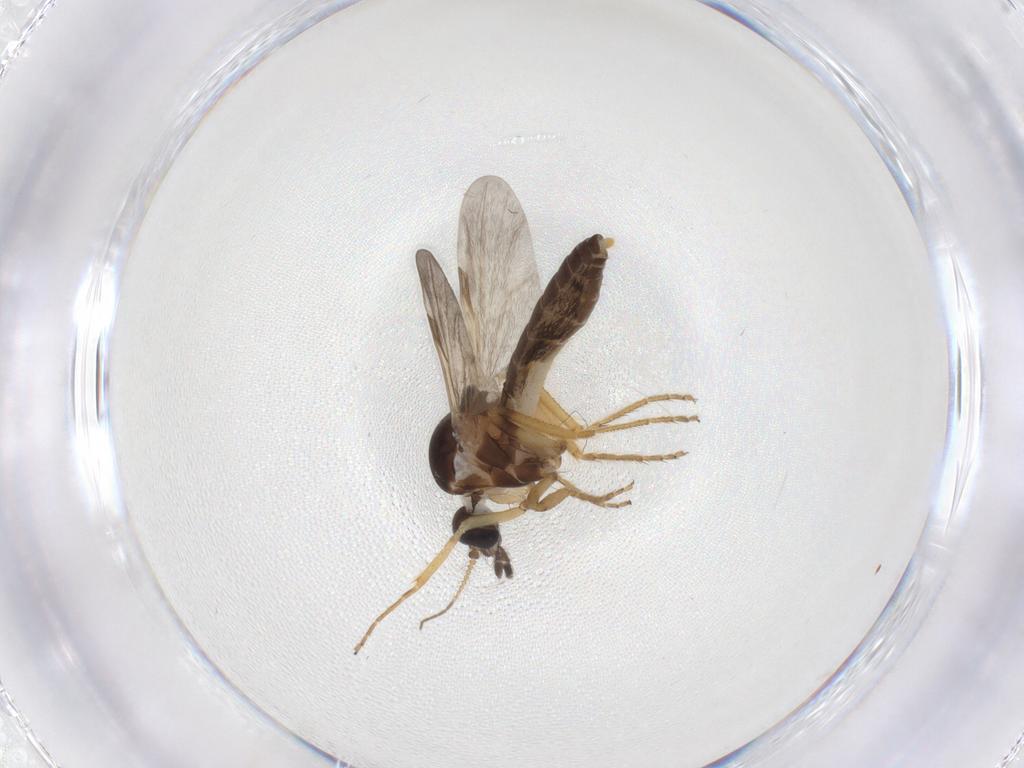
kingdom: Animalia
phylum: Arthropoda
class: Insecta
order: Diptera
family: Ceratopogonidae
